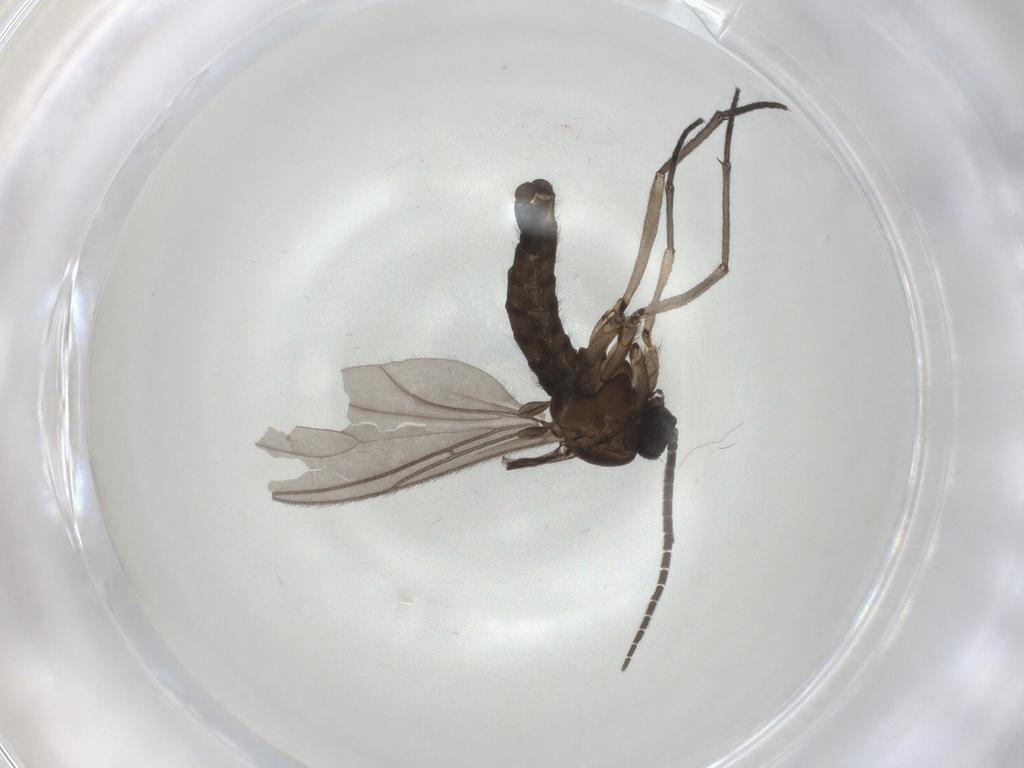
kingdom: Animalia
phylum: Arthropoda
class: Insecta
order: Diptera
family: Sciaridae
